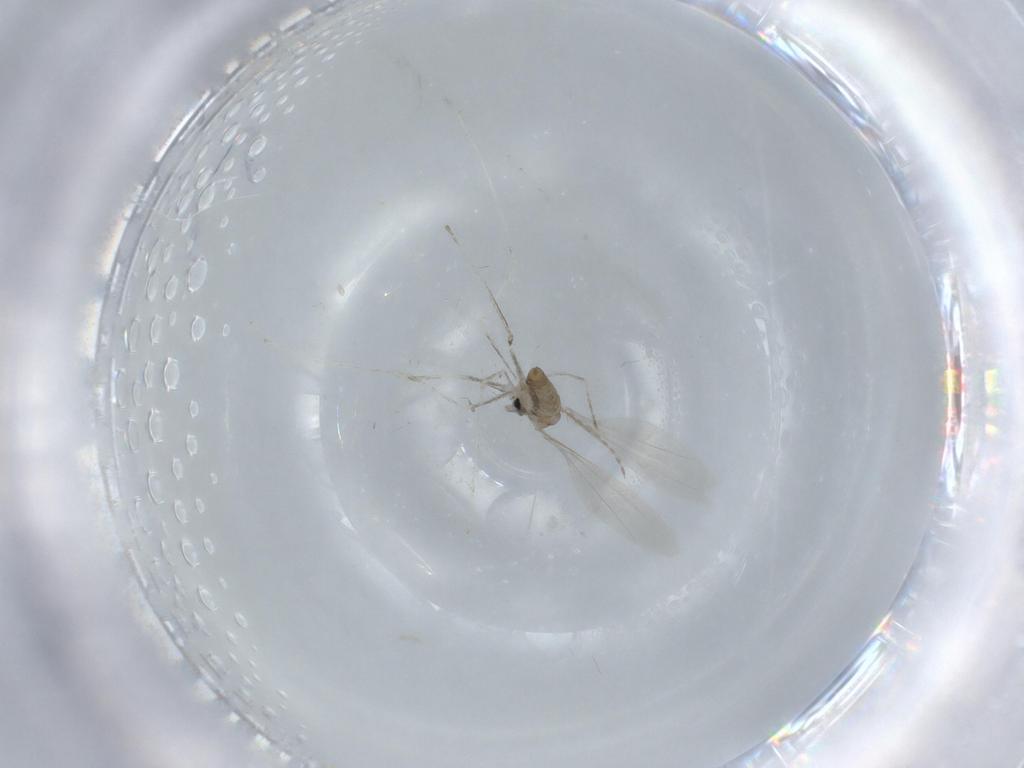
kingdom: Animalia
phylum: Arthropoda
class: Insecta
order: Diptera
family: Cecidomyiidae
